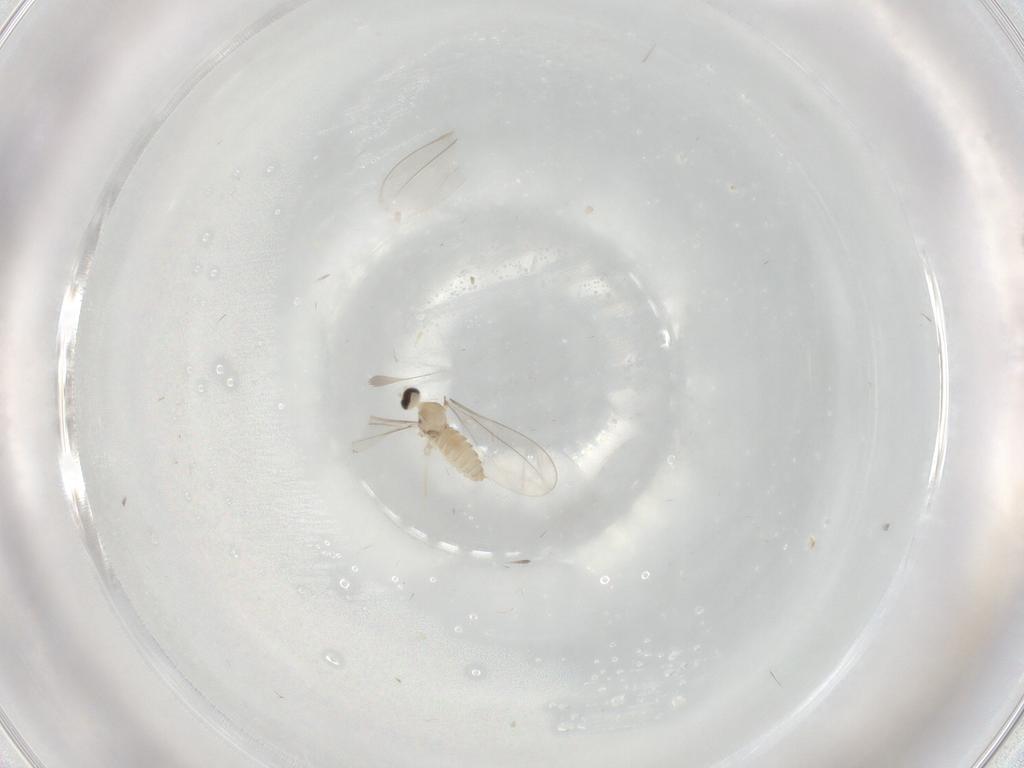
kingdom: Animalia
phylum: Arthropoda
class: Insecta
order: Diptera
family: Cecidomyiidae
